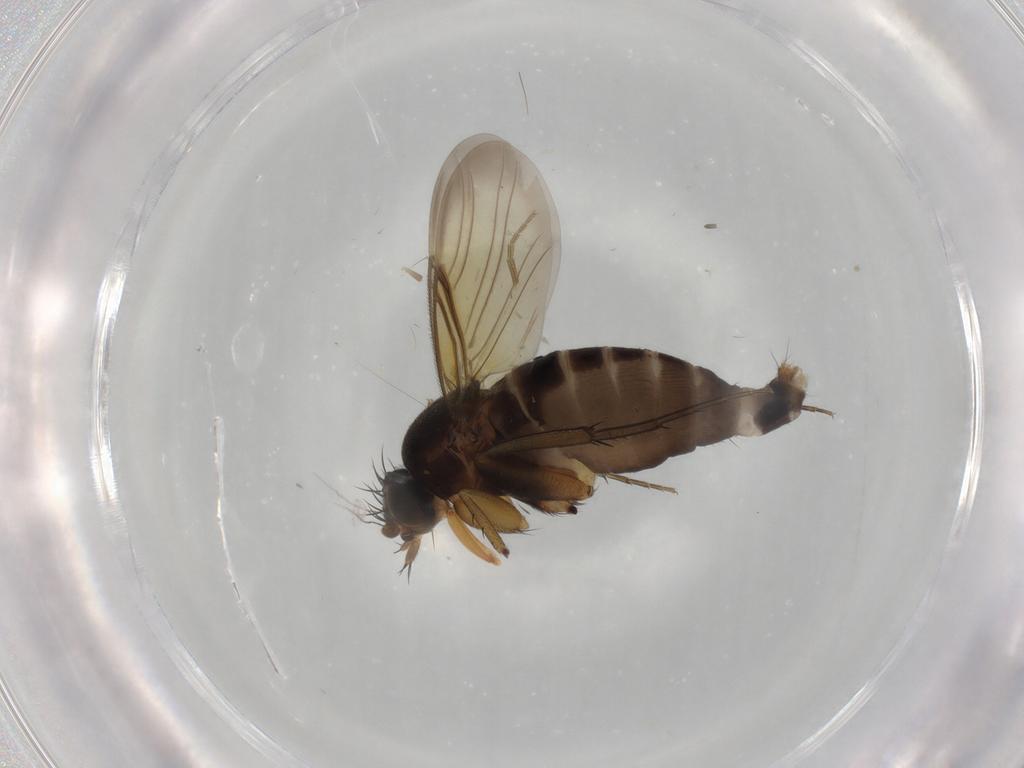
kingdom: Animalia
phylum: Arthropoda
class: Insecta
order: Diptera
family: Phoridae
